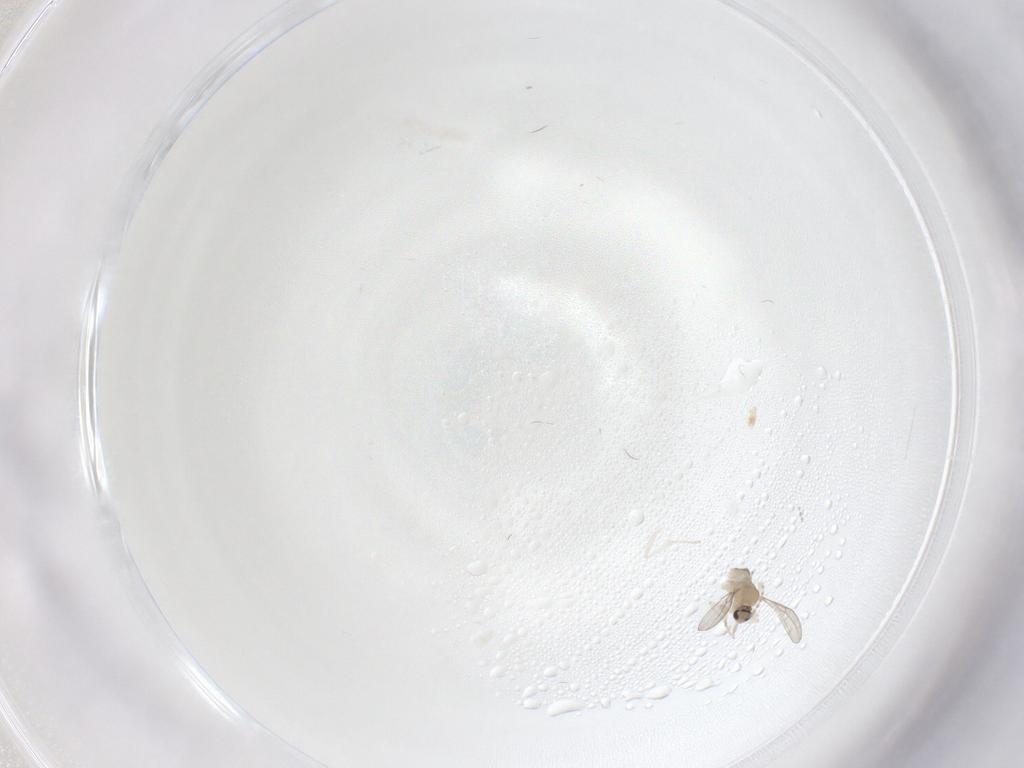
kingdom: Animalia
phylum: Arthropoda
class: Insecta
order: Diptera
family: Cecidomyiidae
